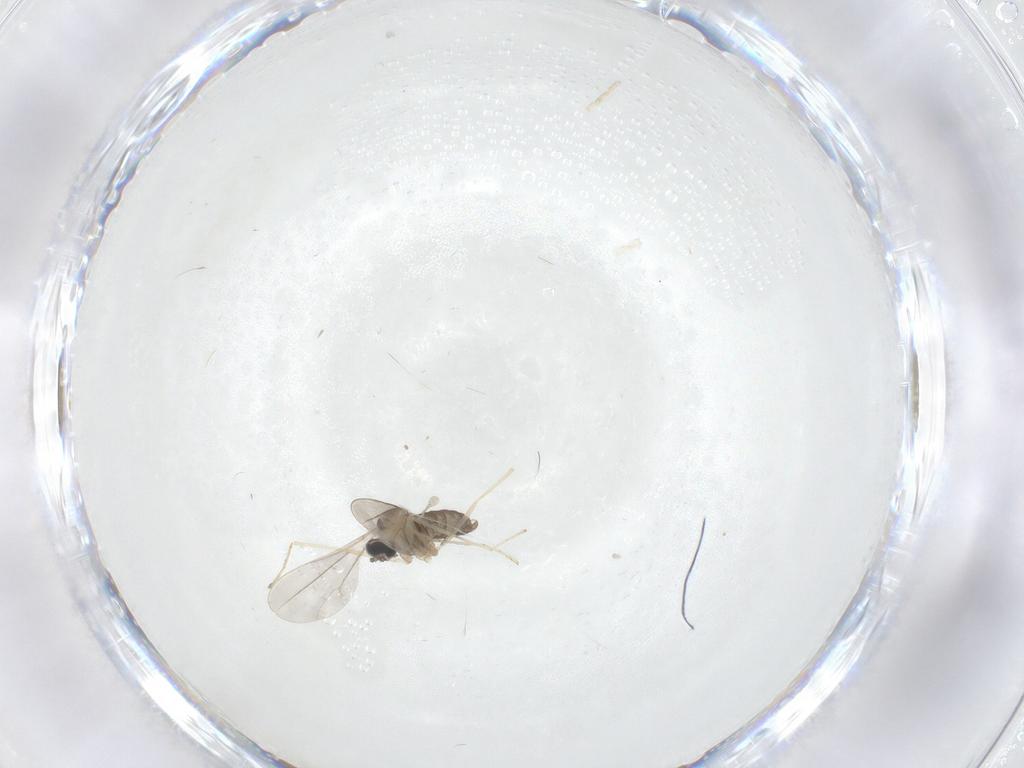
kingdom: Animalia
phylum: Arthropoda
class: Insecta
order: Diptera
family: Chironomidae
